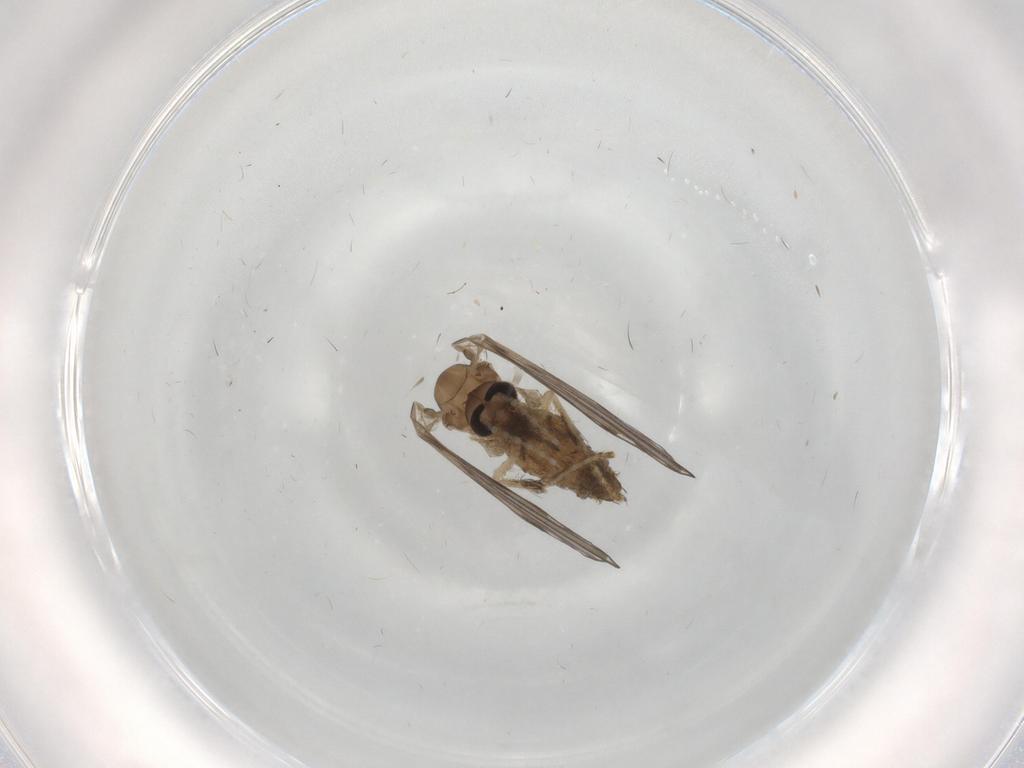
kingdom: Animalia
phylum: Arthropoda
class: Insecta
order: Diptera
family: Psychodidae
